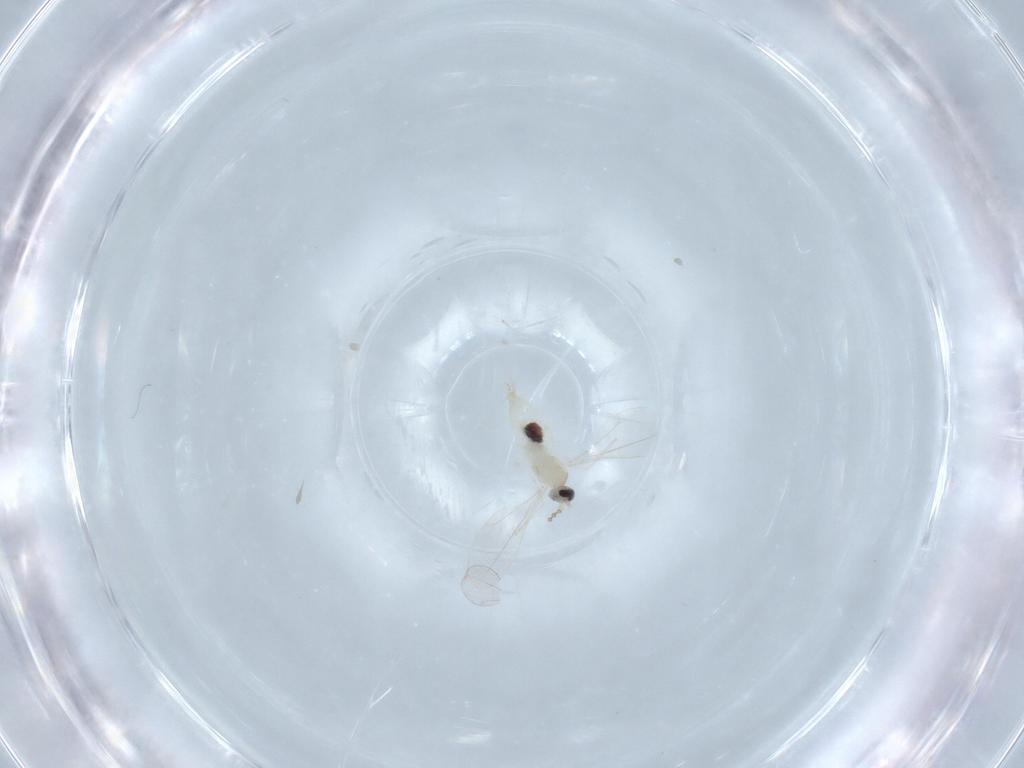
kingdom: Animalia
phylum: Arthropoda
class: Insecta
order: Diptera
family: Cecidomyiidae
